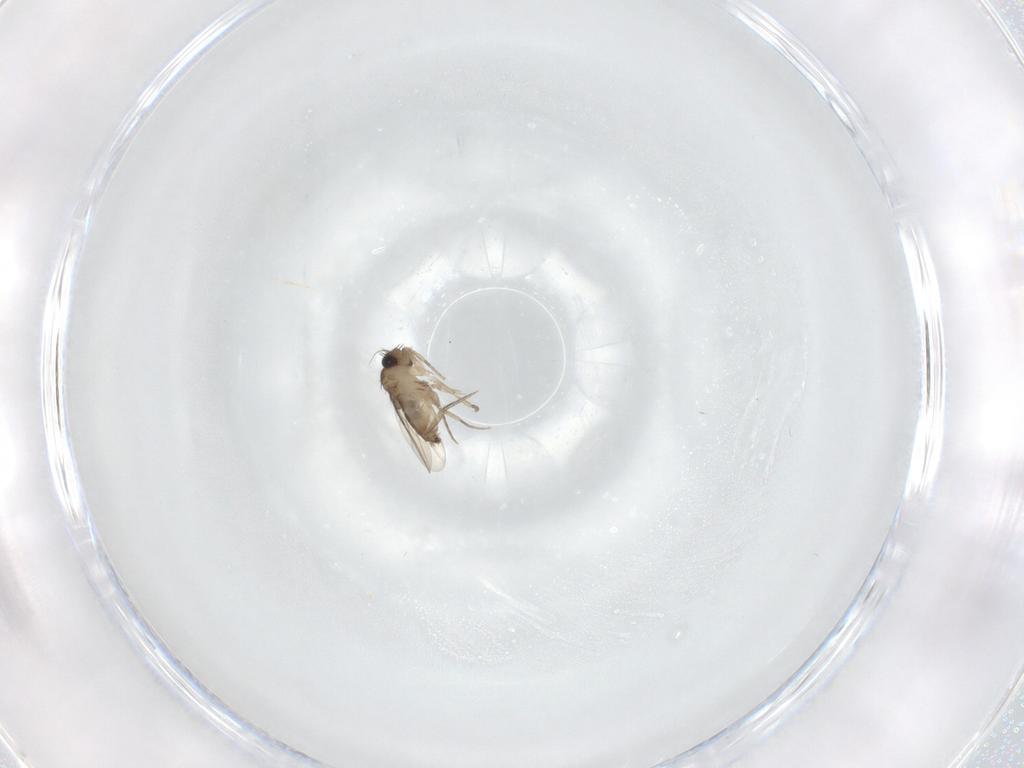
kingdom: Animalia
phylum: Arthropoda
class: Insecta
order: Diptera
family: Phoridae
